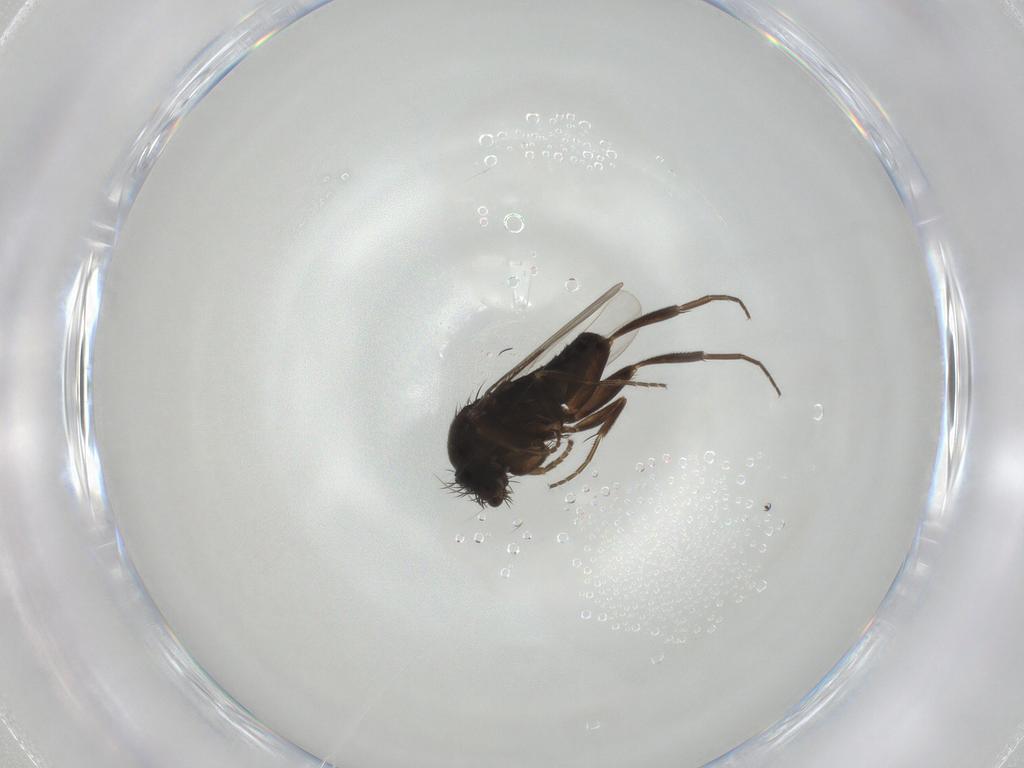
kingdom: Animalia
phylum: Arthropoda
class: Insecta
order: Diptera
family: Phoridae
